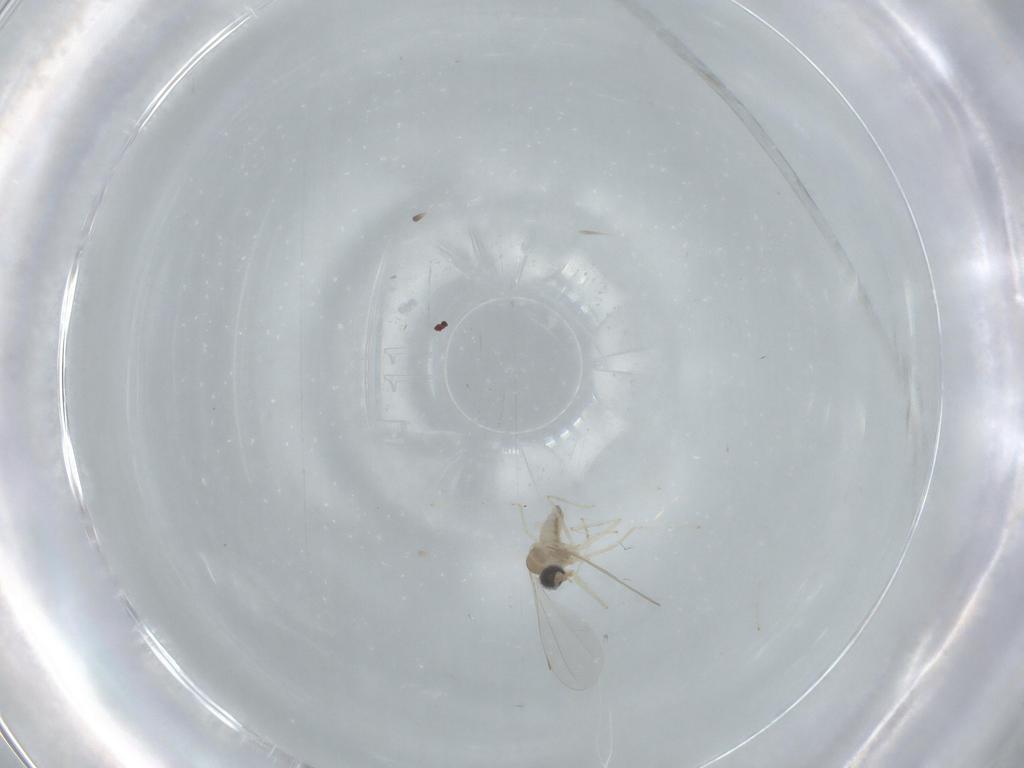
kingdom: Animalia
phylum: Arthropoda
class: Insecta
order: Diptera
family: Cecidomyiidae
